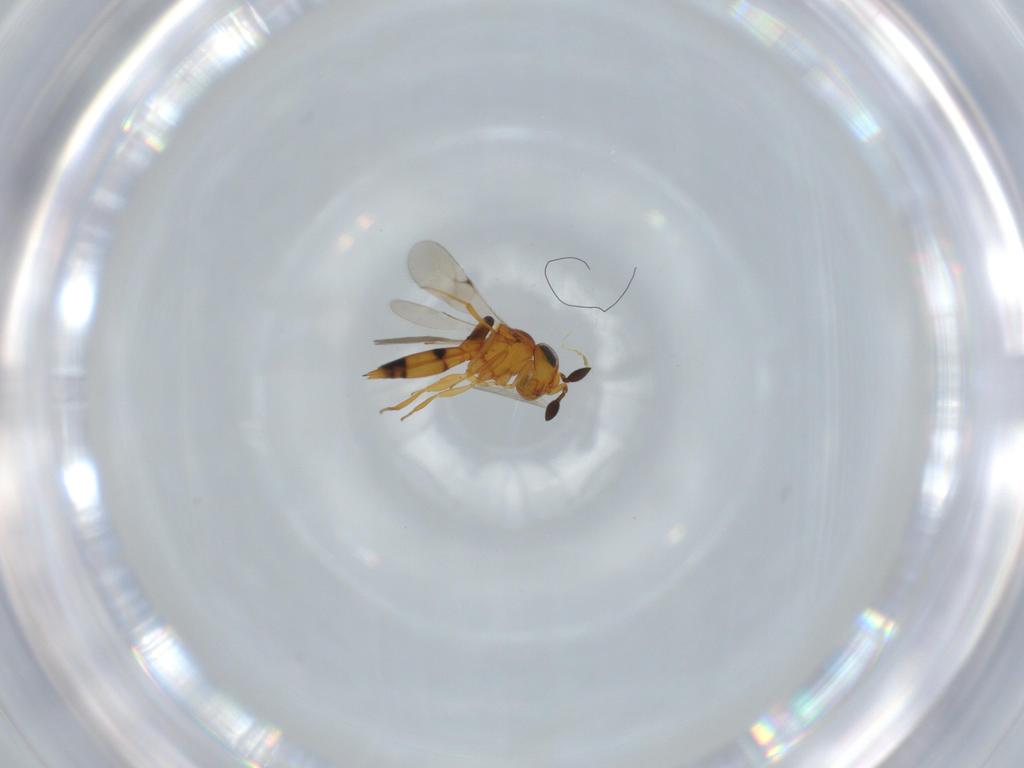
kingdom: Animalia
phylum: Arthropoda
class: Insecta
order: Hymenoptera
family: Scelionidae
